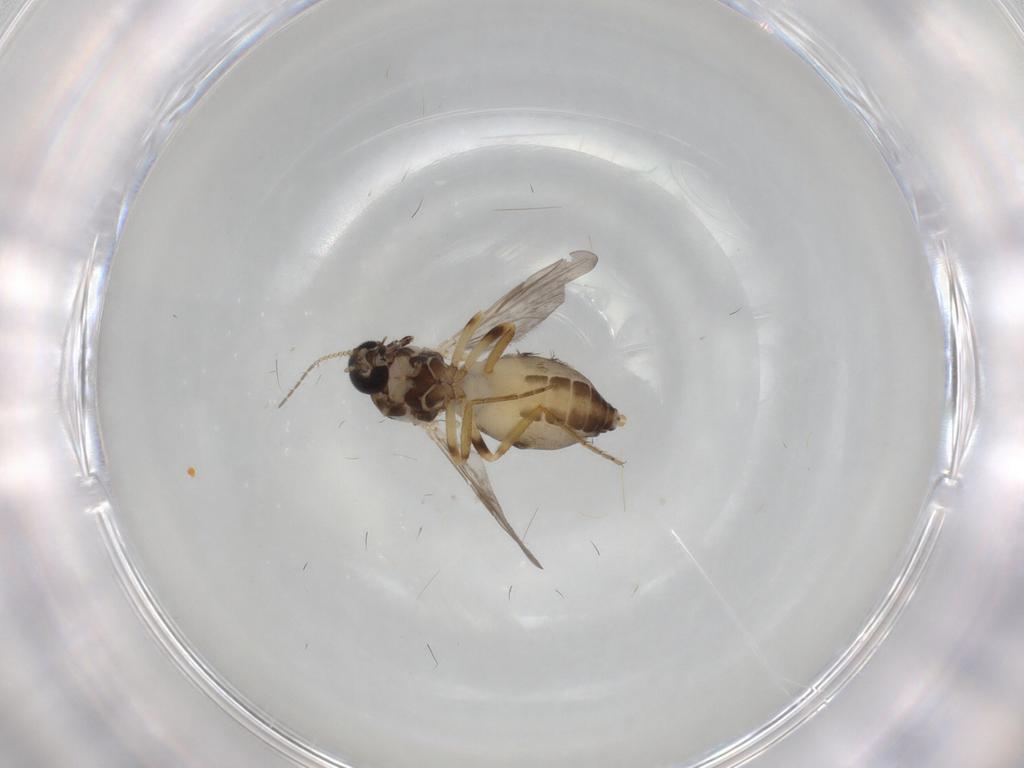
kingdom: Animalia
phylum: Arthropoda
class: Insecta
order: Diptera
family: Ceratopogonidae
